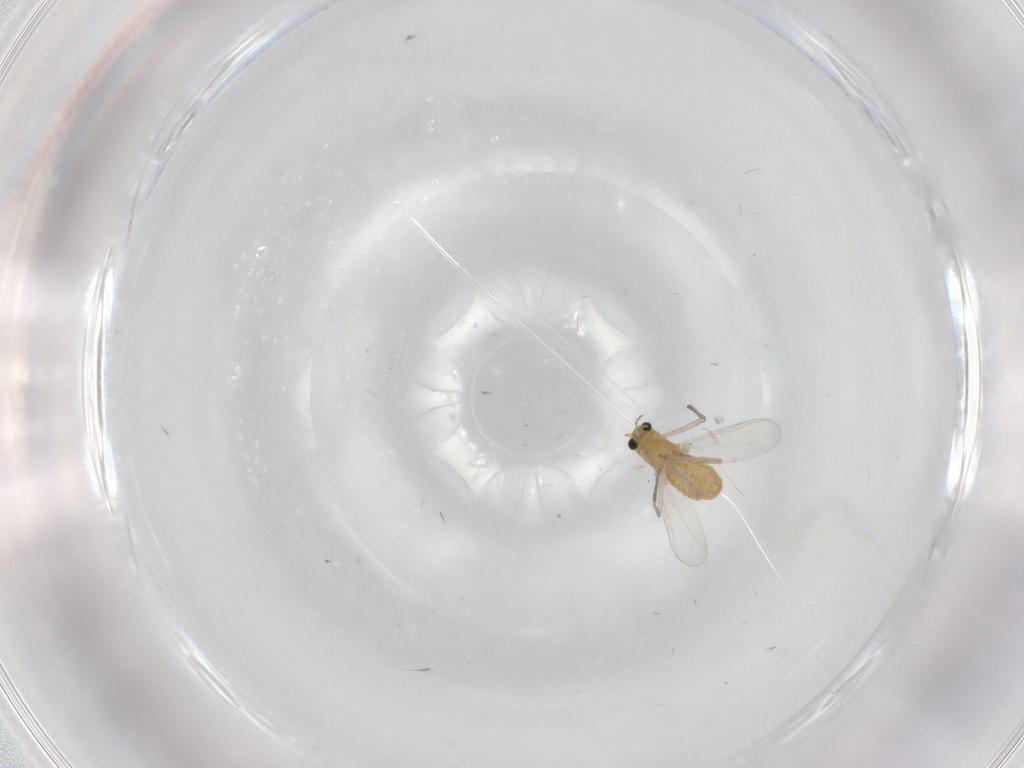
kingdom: Animalia
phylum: Arthropoda
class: Insecta
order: Diptera
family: Chironomidae
